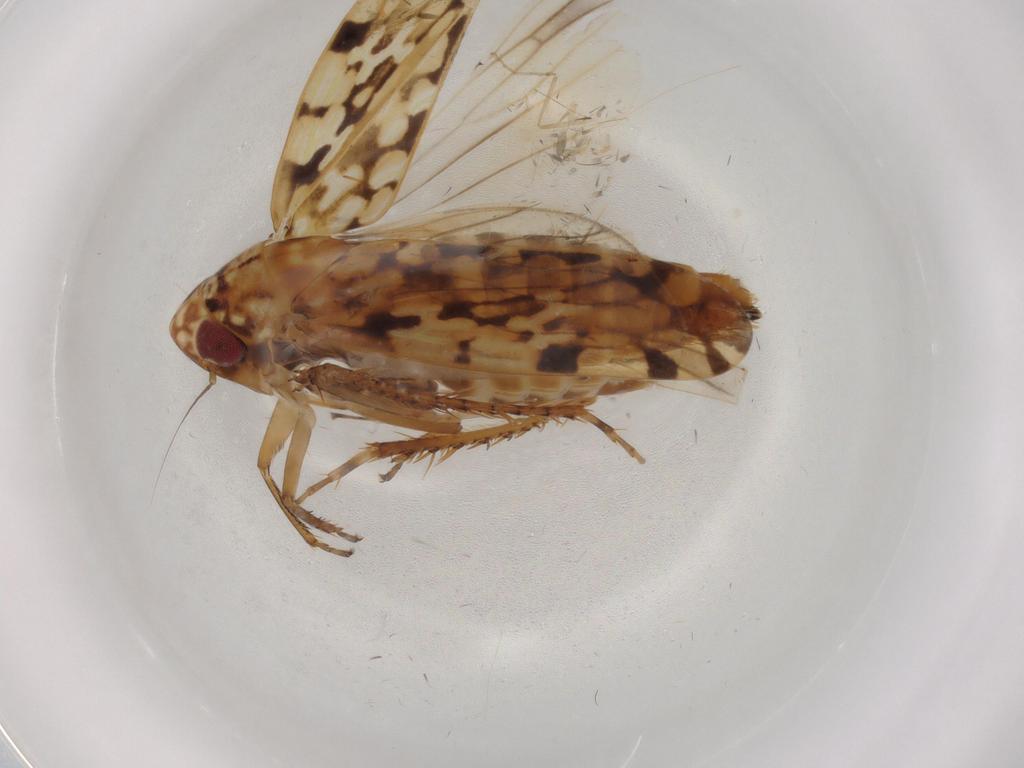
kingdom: Animalia
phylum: Arthropoda
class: Insecta
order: Hemiptera
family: Cicadellidae
